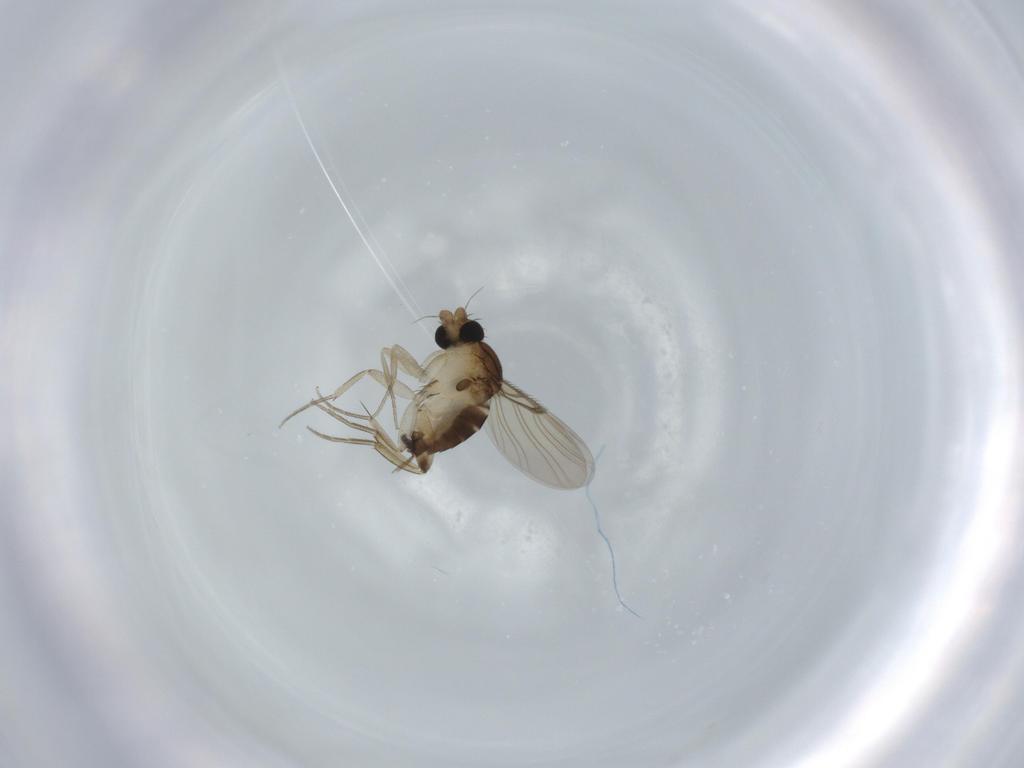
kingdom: Animalia
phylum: Arthropoda
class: Insecta
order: Diptera
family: Phoridae
